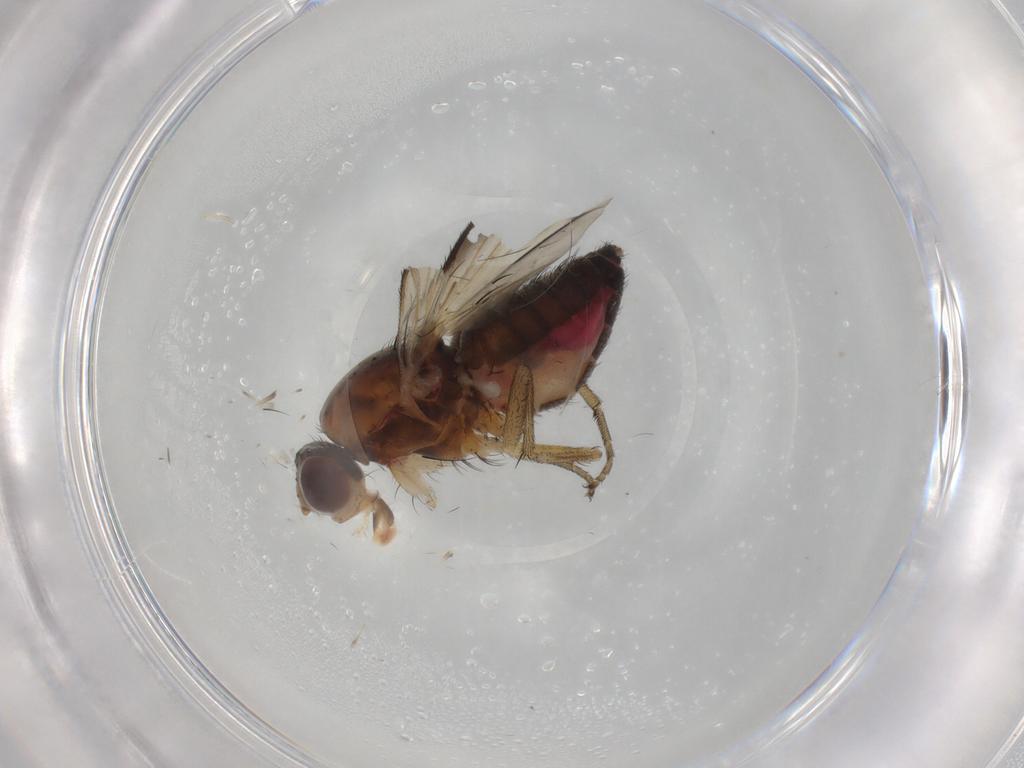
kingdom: Animalia
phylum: Arthropoda
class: Insecta
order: Diptera
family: Heleomyzidae
